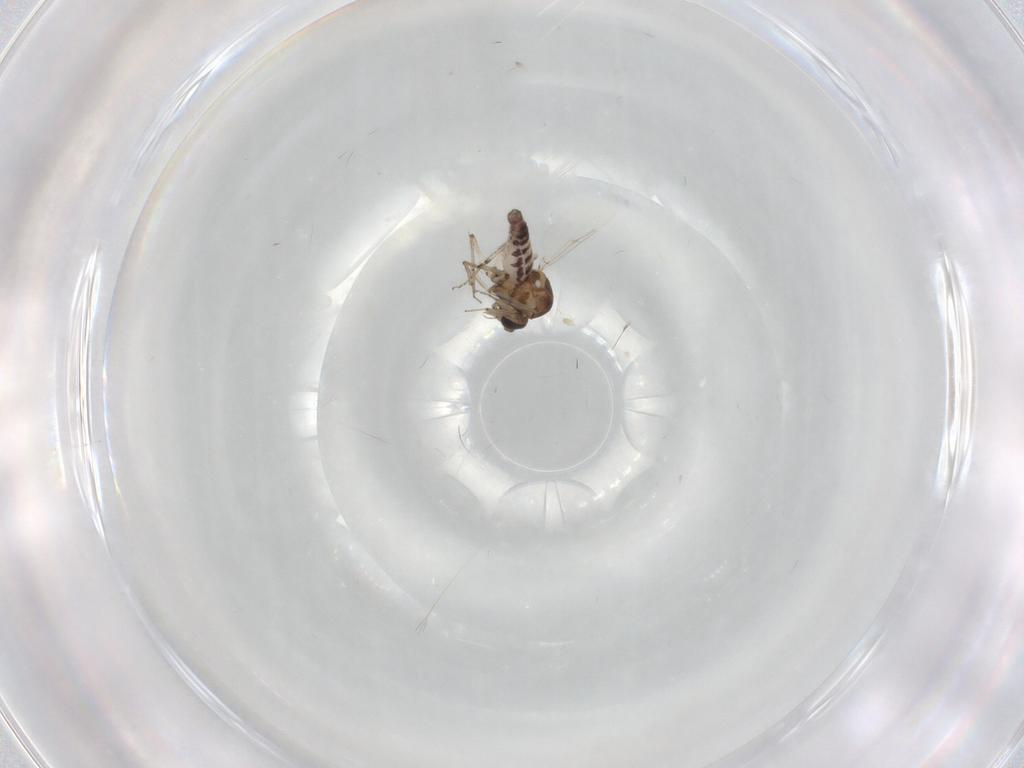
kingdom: Animalia
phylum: Arthropoda
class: Insecta
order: Diptera
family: Ceratopogonidae
